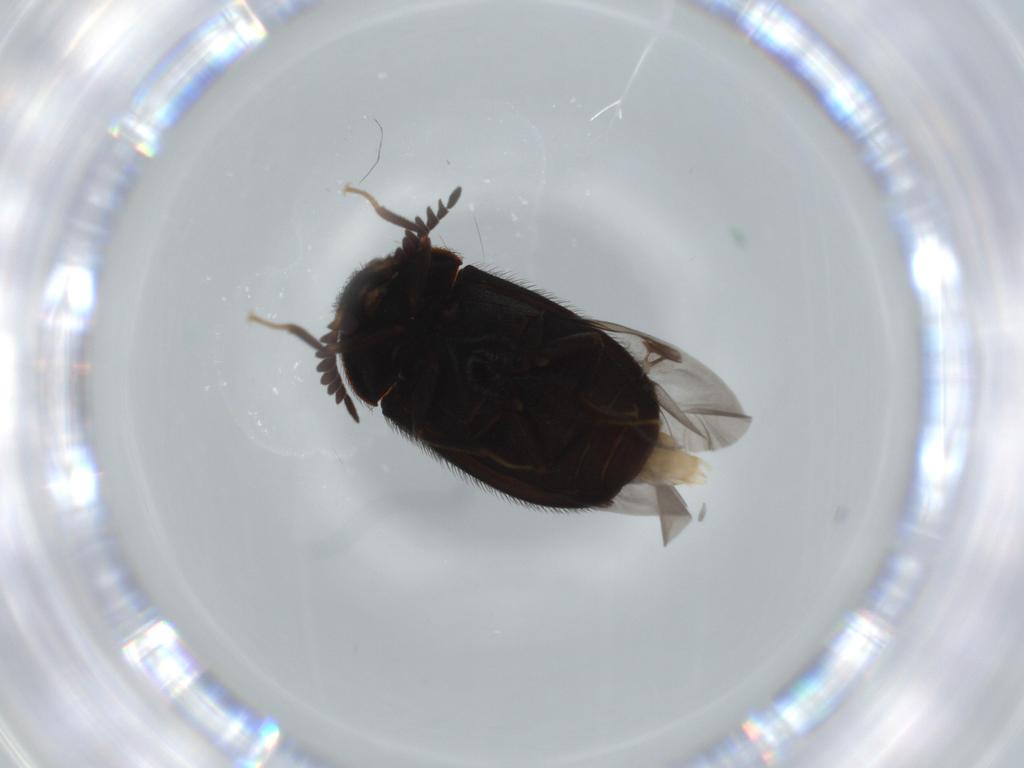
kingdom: Animalia
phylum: Arthropoda
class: Insecta
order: Coleoptera
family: Dermestidae
